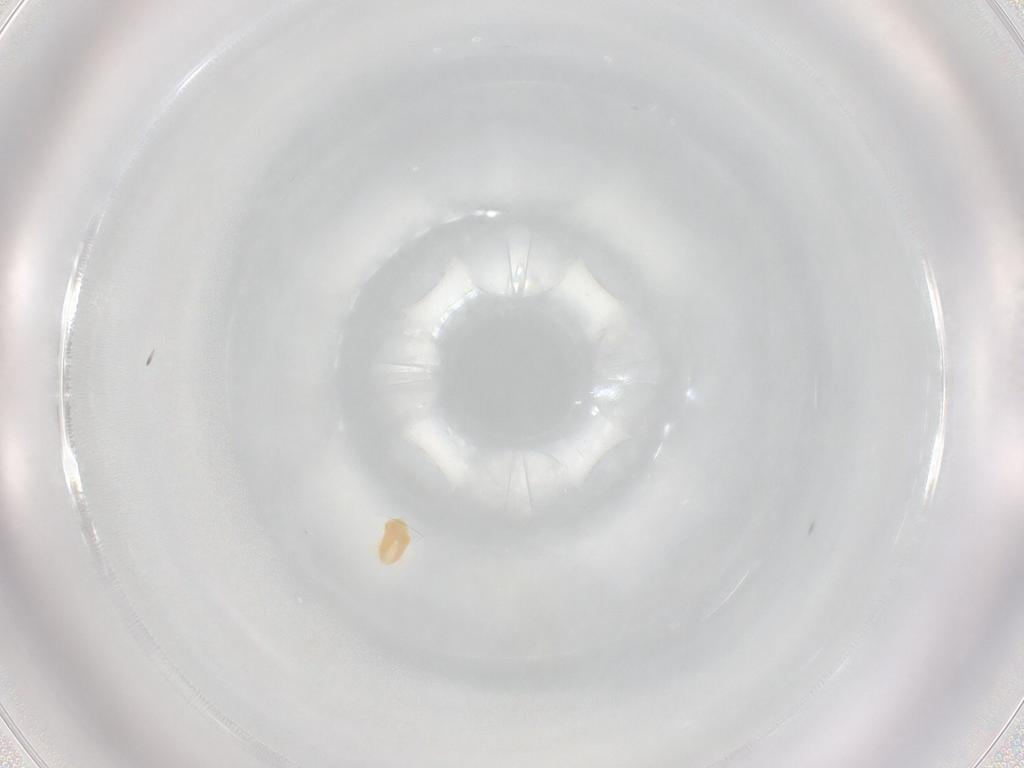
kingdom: Animalia
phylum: Arthropoda
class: Arachnida
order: Trombidiformes
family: Eupodidae
